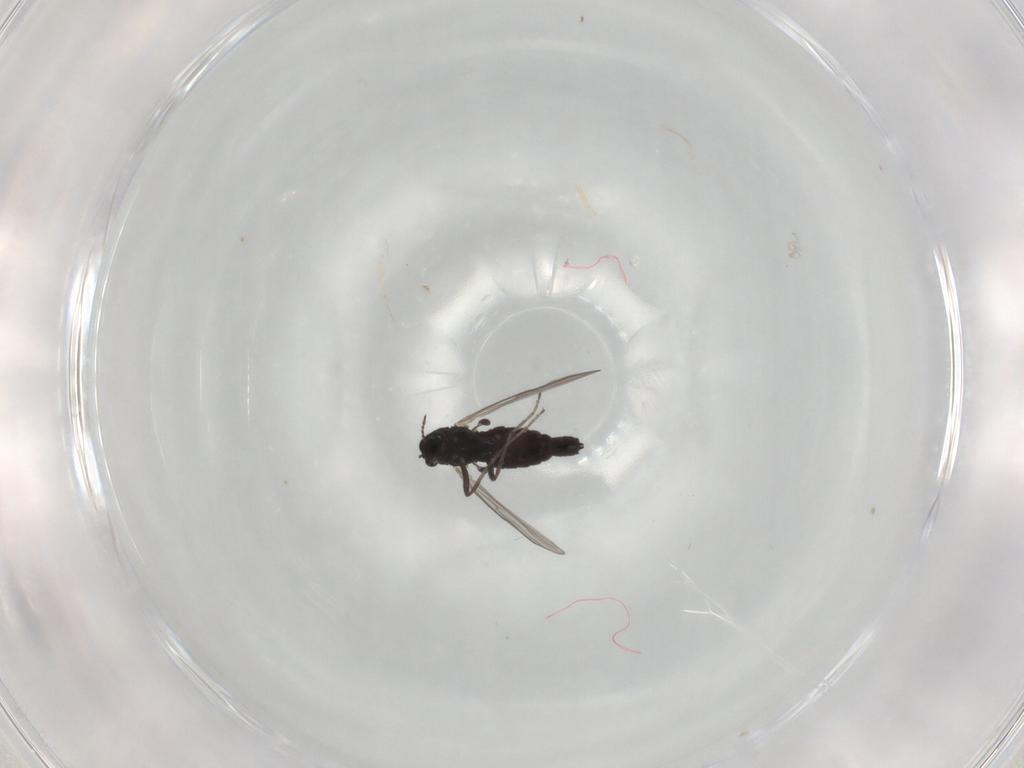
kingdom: Animalia
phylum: Arthropoda
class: Insecta
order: Diptera
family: Chironomidae
